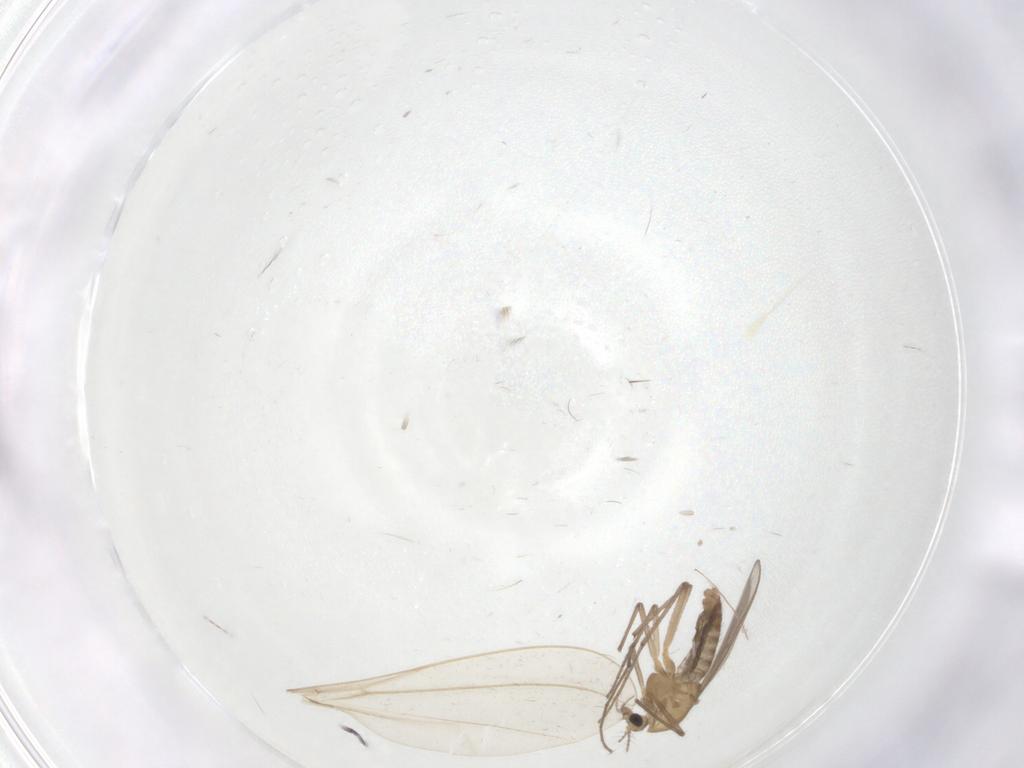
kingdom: Animalia
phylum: Arthropoda
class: Insecta
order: Diptera
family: Chironomidae
